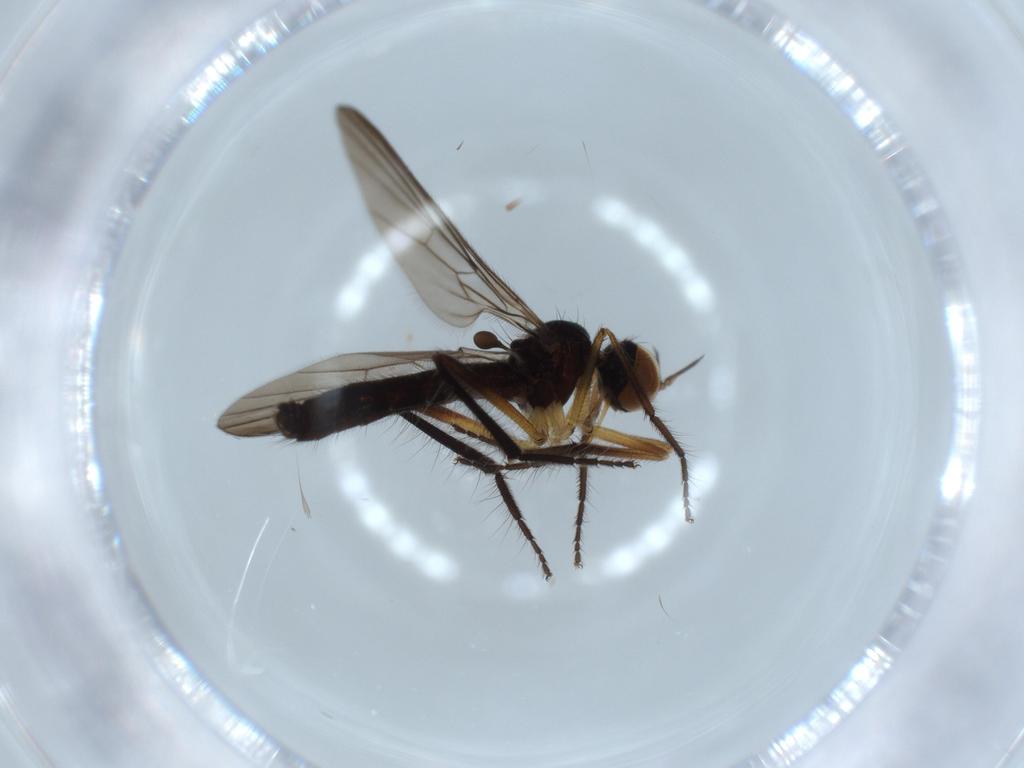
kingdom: Animalia
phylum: Arthropoda
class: Insecta
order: Diptera
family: Empididae
